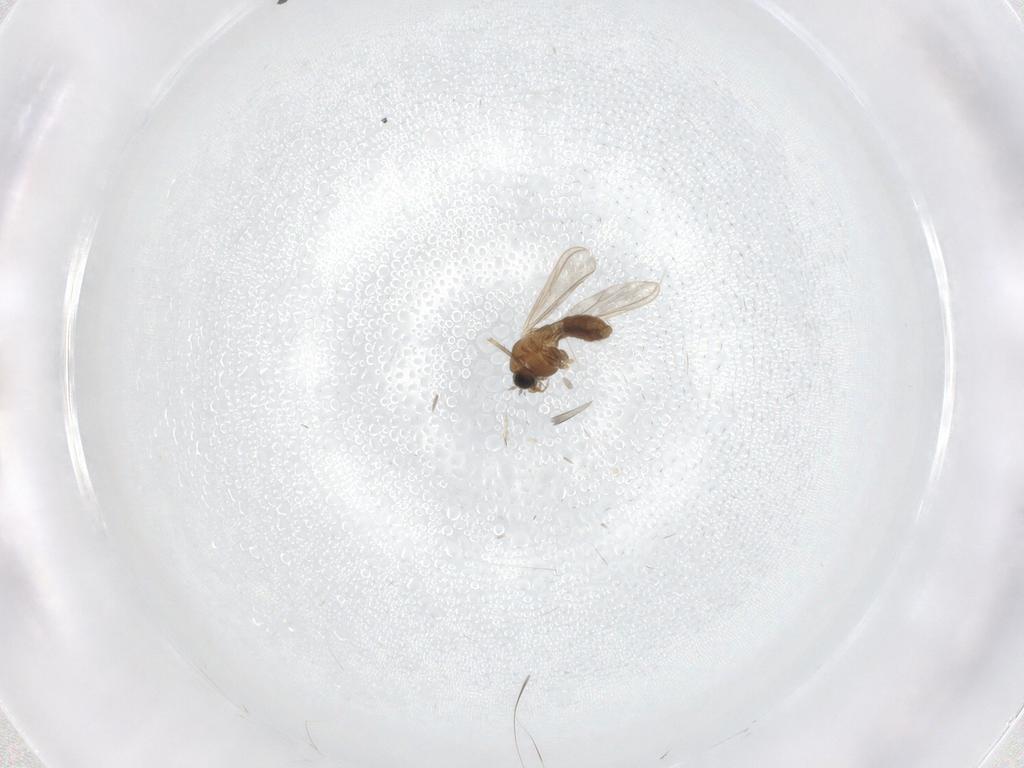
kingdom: Animalia
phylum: Arthropoda
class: Insecta
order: Diptera
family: Chironomidae
